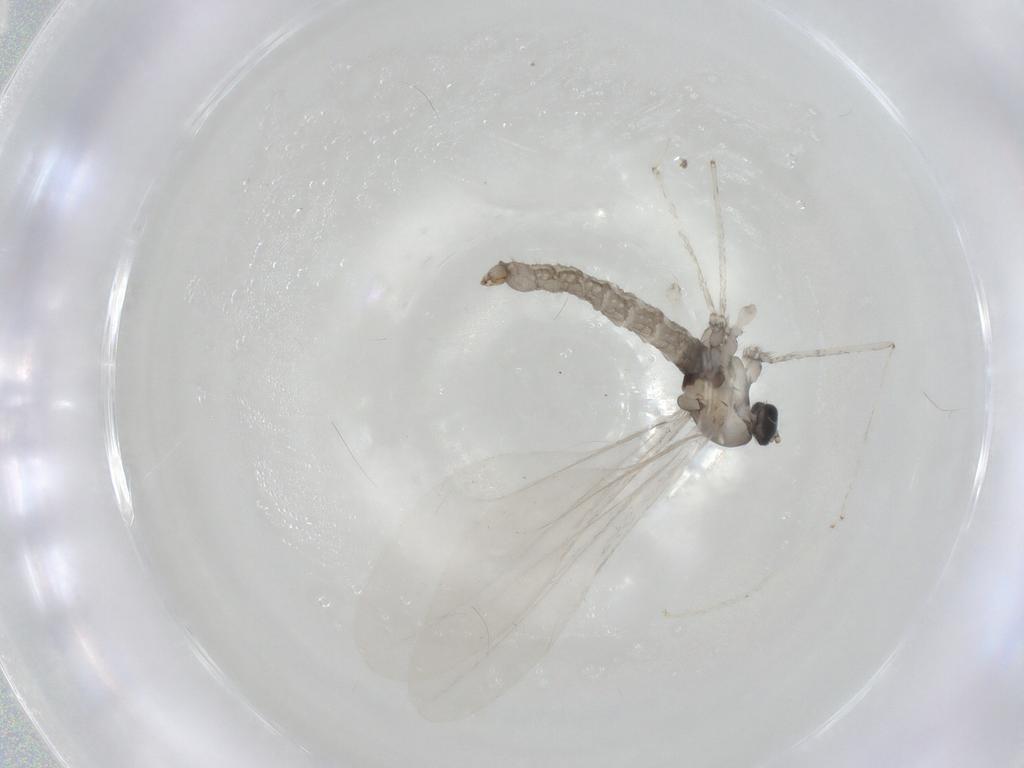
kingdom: Animalia
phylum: Arthropoda
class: Insecta
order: Diptera
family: Cecidomyiidae
